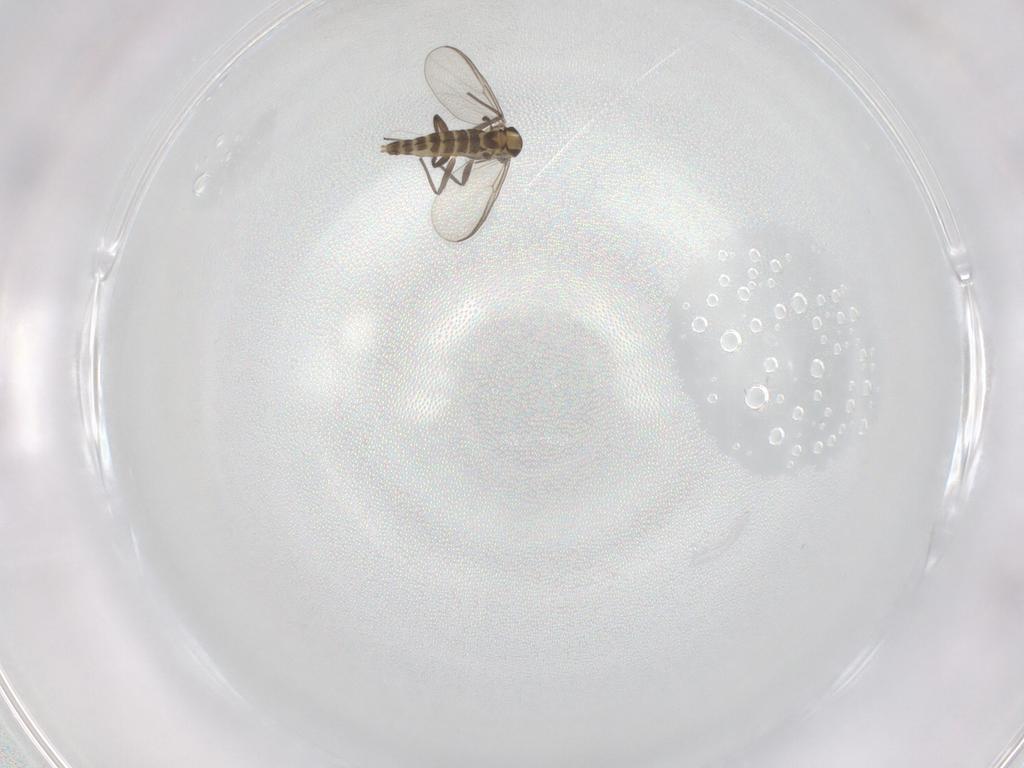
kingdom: Animalia
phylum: Arthropoda
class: Insecta
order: Diptera
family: Chironomidae
